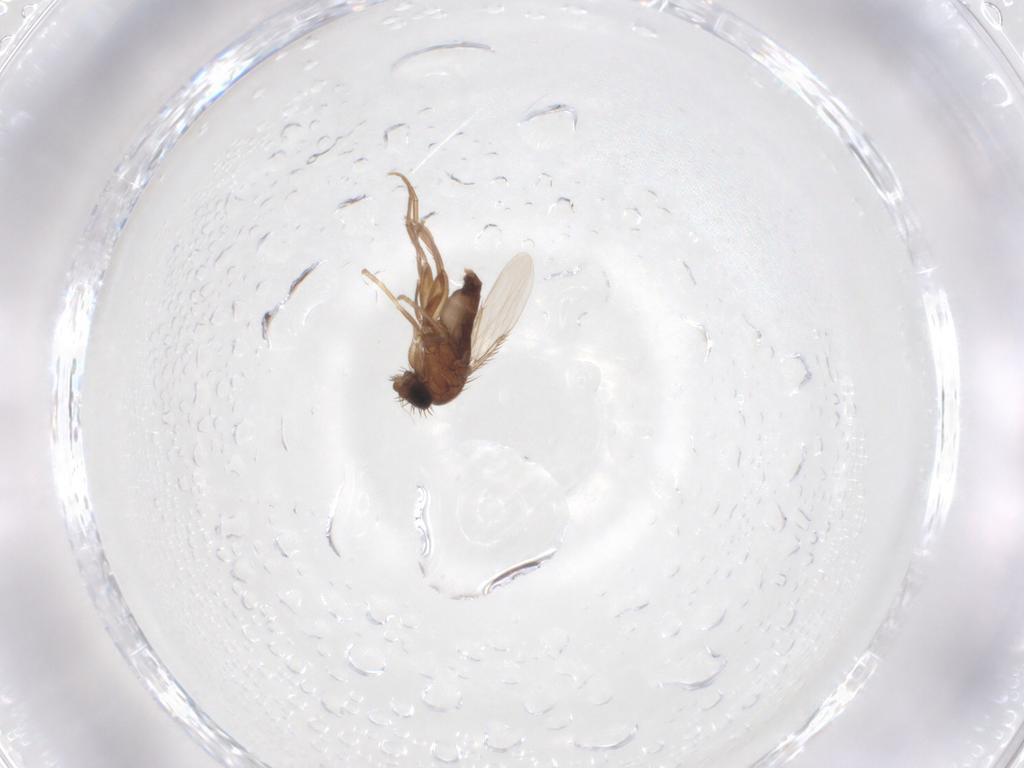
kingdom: Animalia
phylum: Arthropoda
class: Insecta
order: Diptera
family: Phoridae
